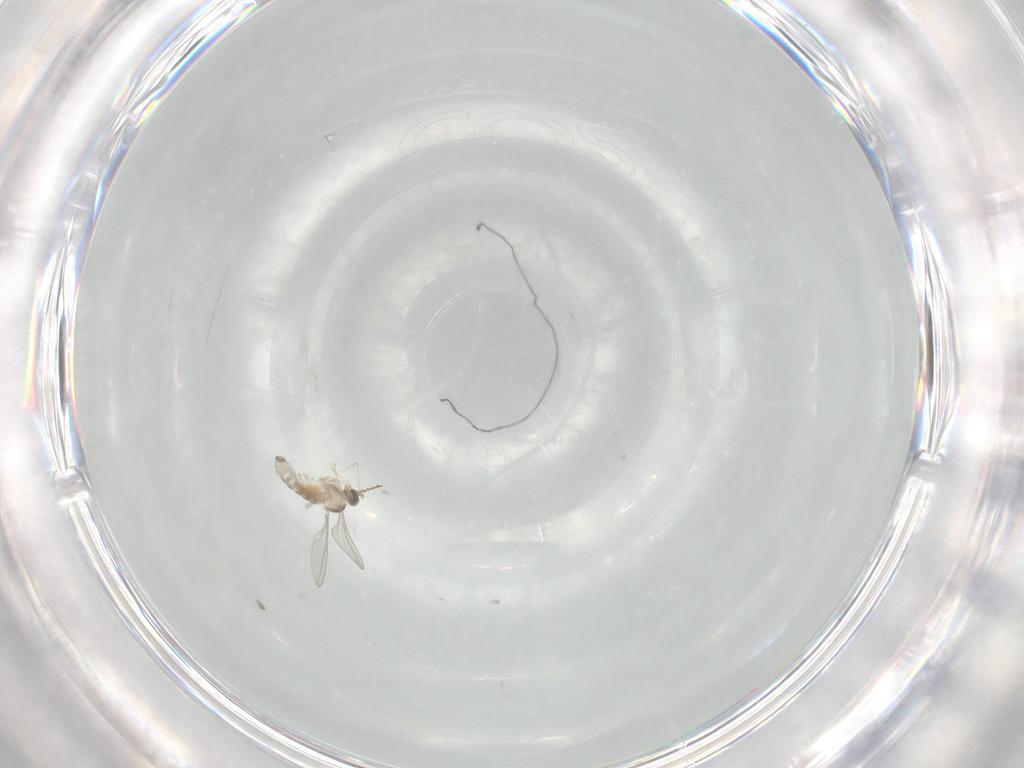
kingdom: Animalia
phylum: Arthropoda
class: Insecta
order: Diptera
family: Cecidomyiidae
